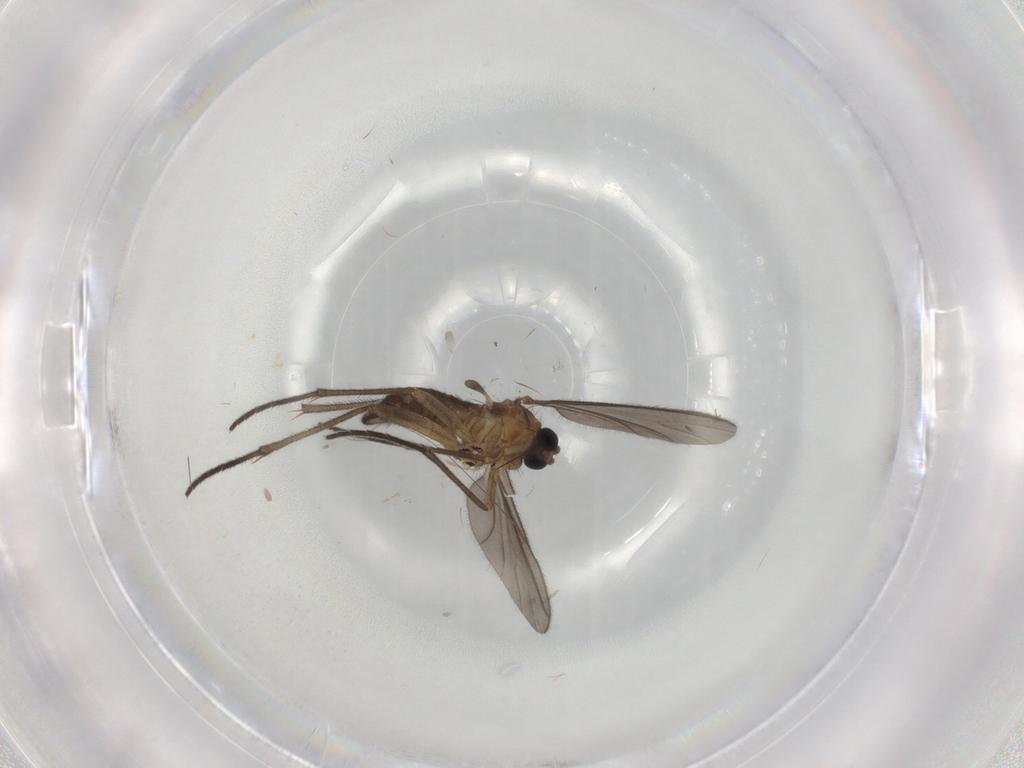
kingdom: Animalia
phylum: Arthropoda
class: Insecta
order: Diptera
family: Sciaridae
